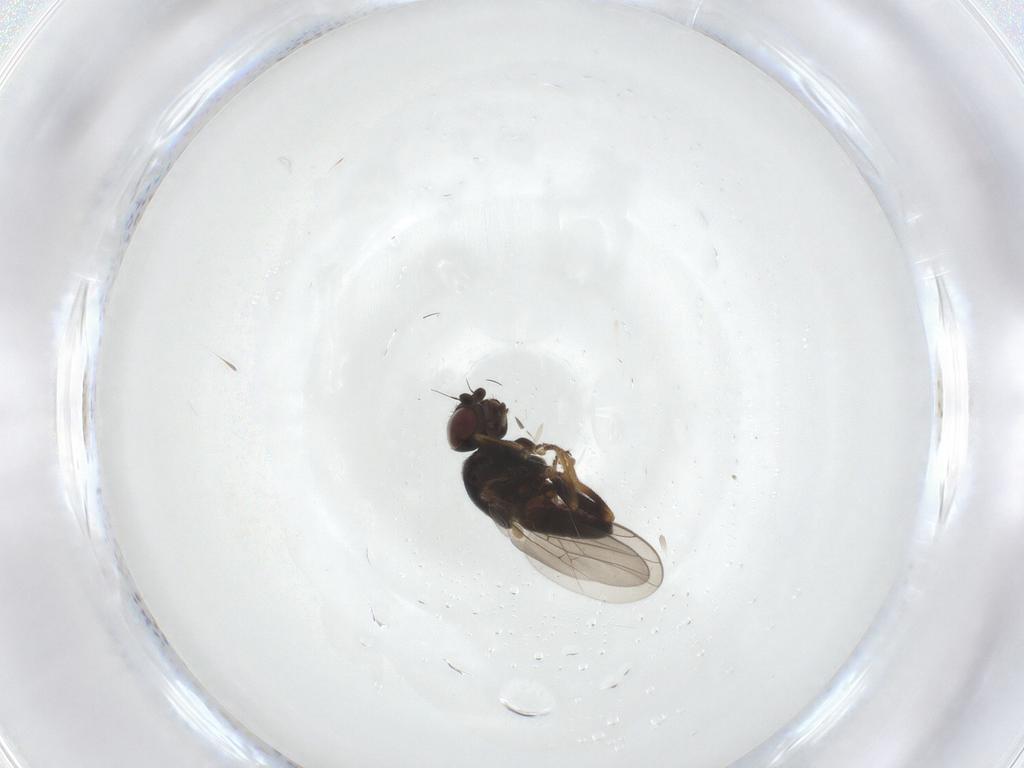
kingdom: Animalia
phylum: Arthropoda
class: Insecta
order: Diptera
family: Chloropidae
